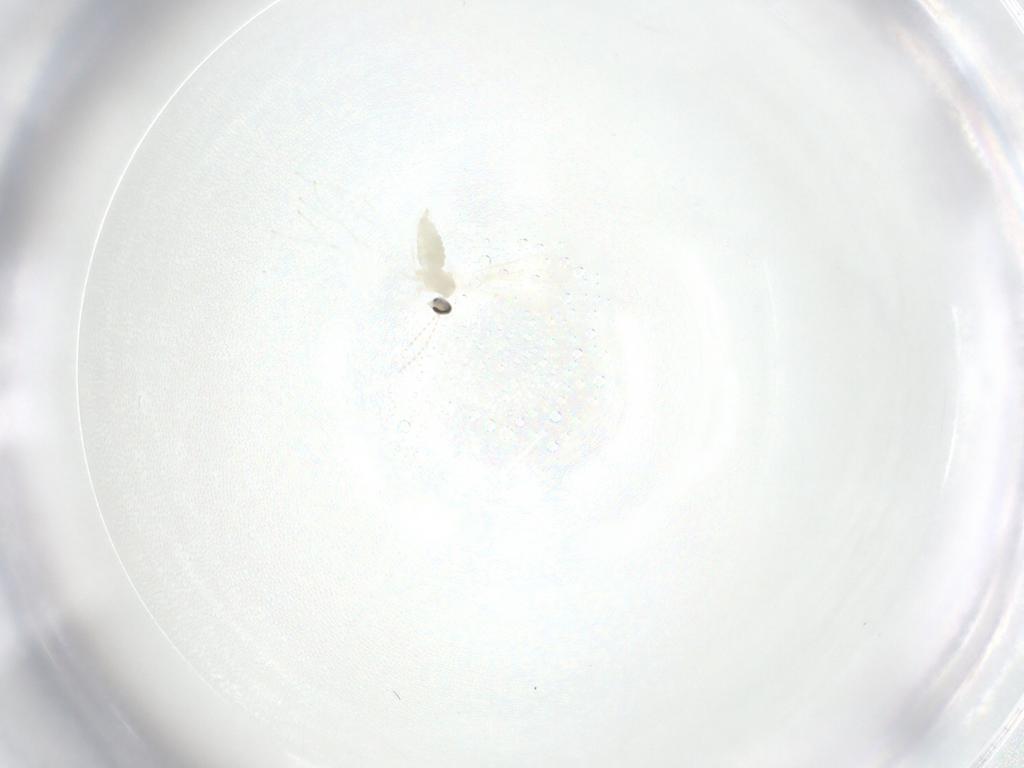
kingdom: Animalia
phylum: Arthropoda
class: Insecta
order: Diptera
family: Cecidomyiidae
